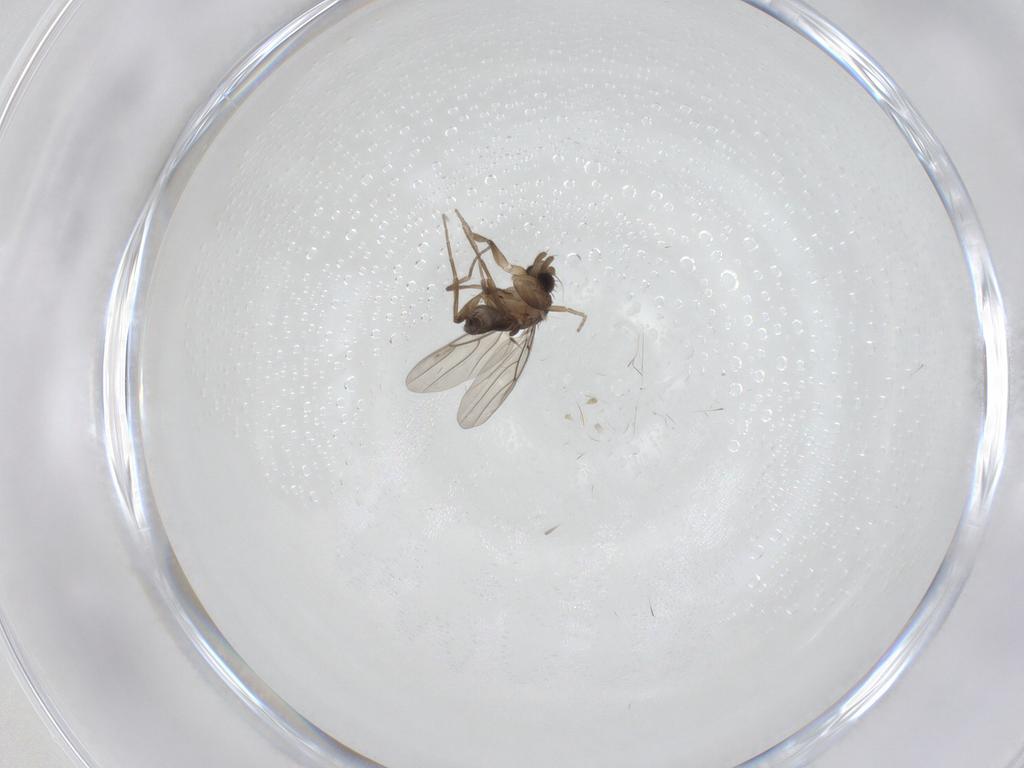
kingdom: Animalia
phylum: Arthropoda
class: Insecta
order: Diptera
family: Phoridae
